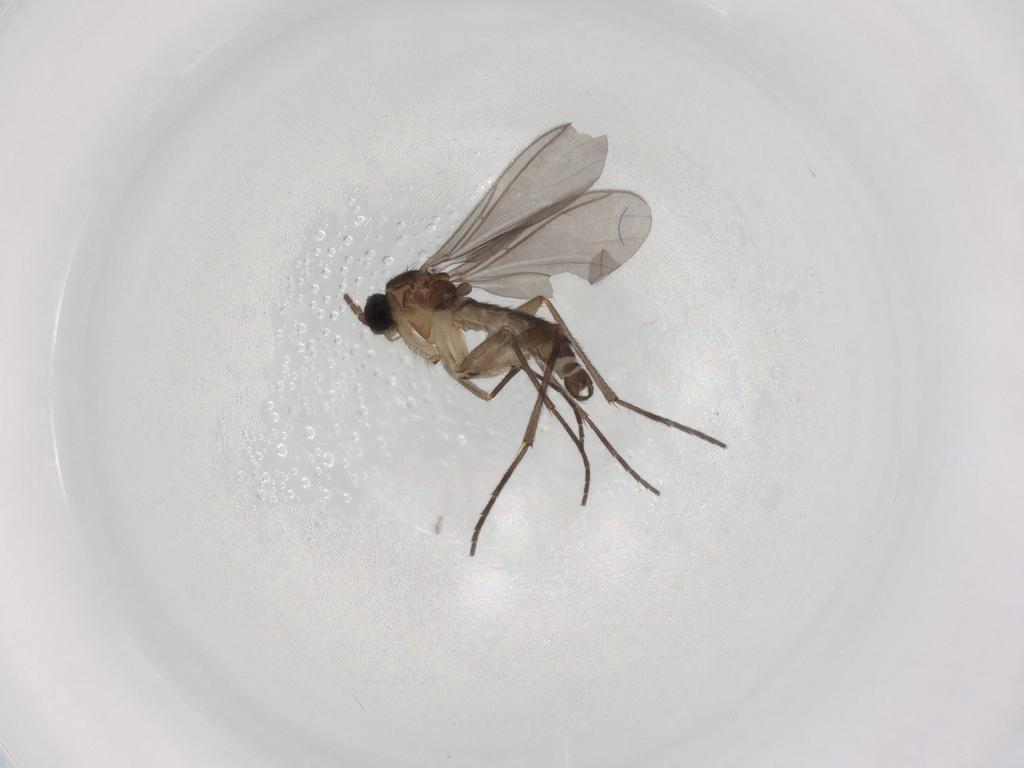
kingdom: Animalia
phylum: Arthropoda
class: Insecta
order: Diptera
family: Sciaridae
